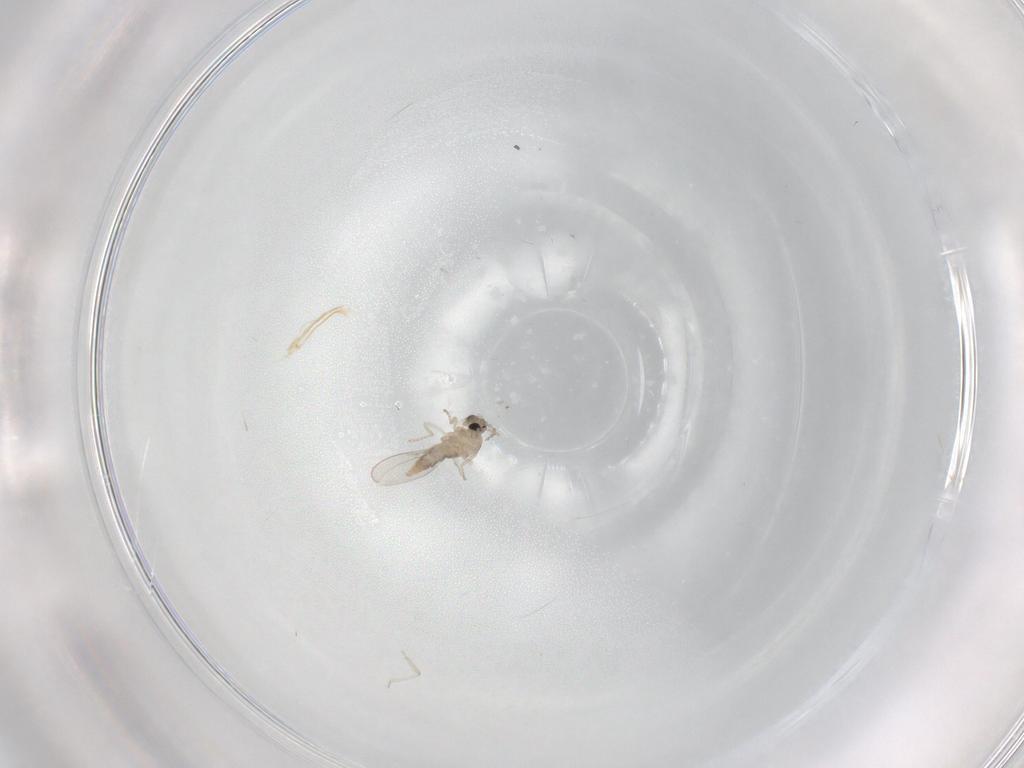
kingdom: Animalia
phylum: Arthropoda
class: Insecta
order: Diptera
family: Cecidomyiidae
